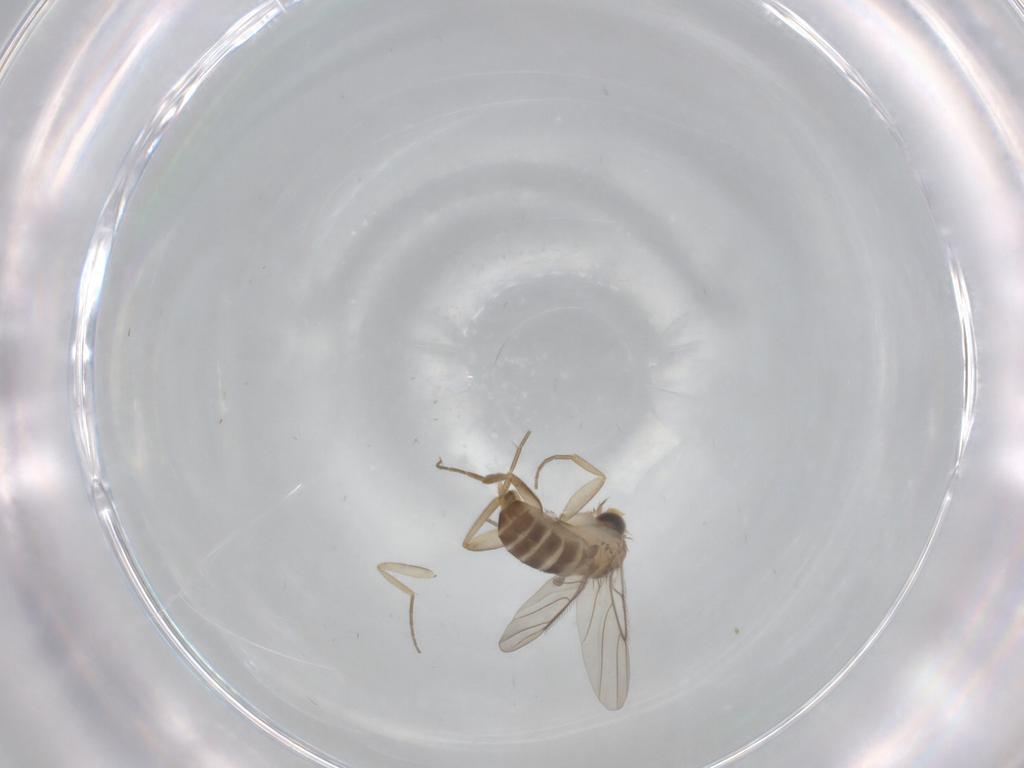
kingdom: Animalia
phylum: Arthropoda
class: Insecta
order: Diptera
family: Phoridae
